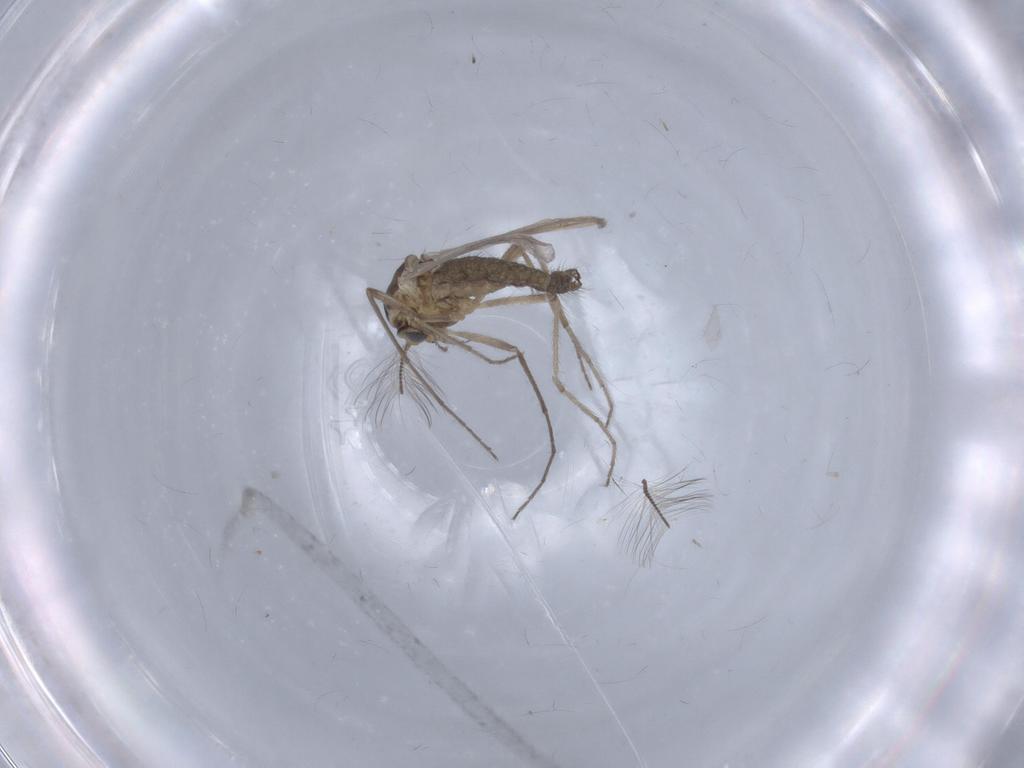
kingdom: Animalia
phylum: Arthropoda
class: Insecta
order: Diptera
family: Chironomidae
